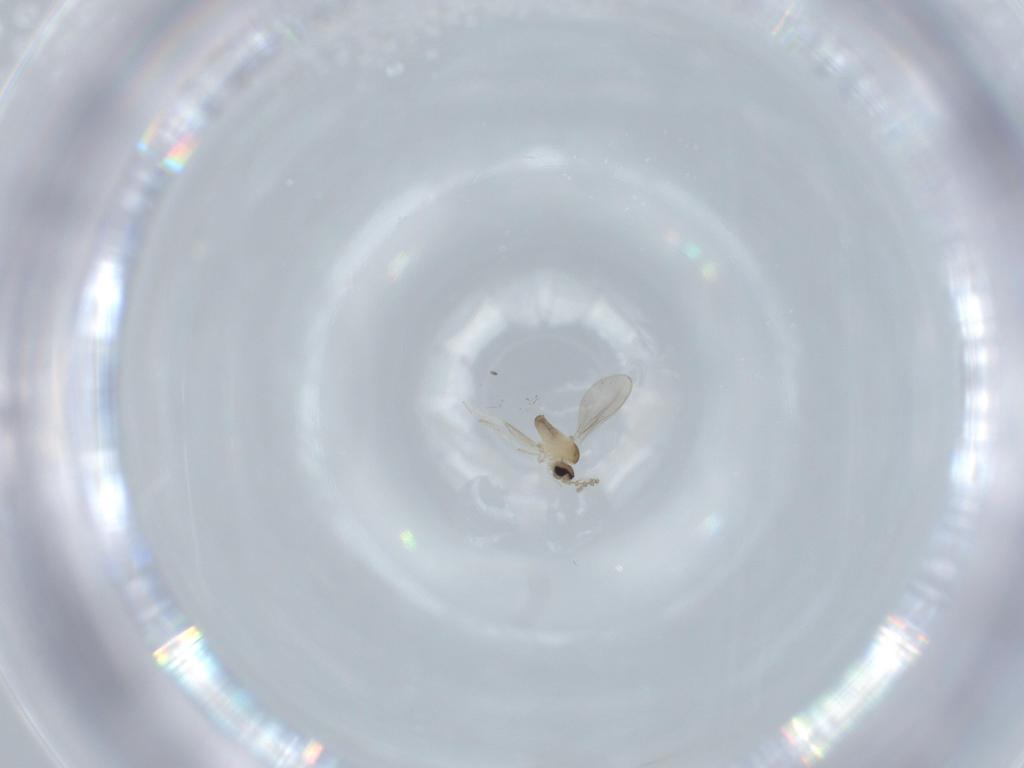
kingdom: Animalia
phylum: Arthropoda
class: Insecta
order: Diptera
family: Cecidomyiidae
